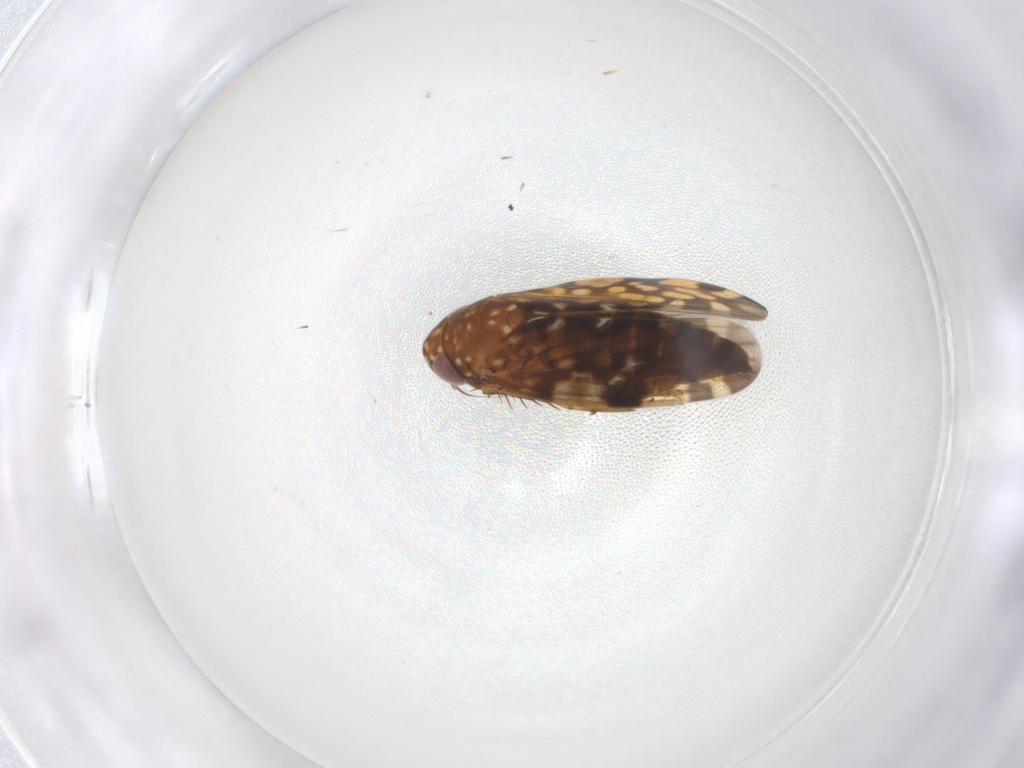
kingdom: Animalia
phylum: Arthropoda
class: Insecta
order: Hemiptera
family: Cicadellidae
